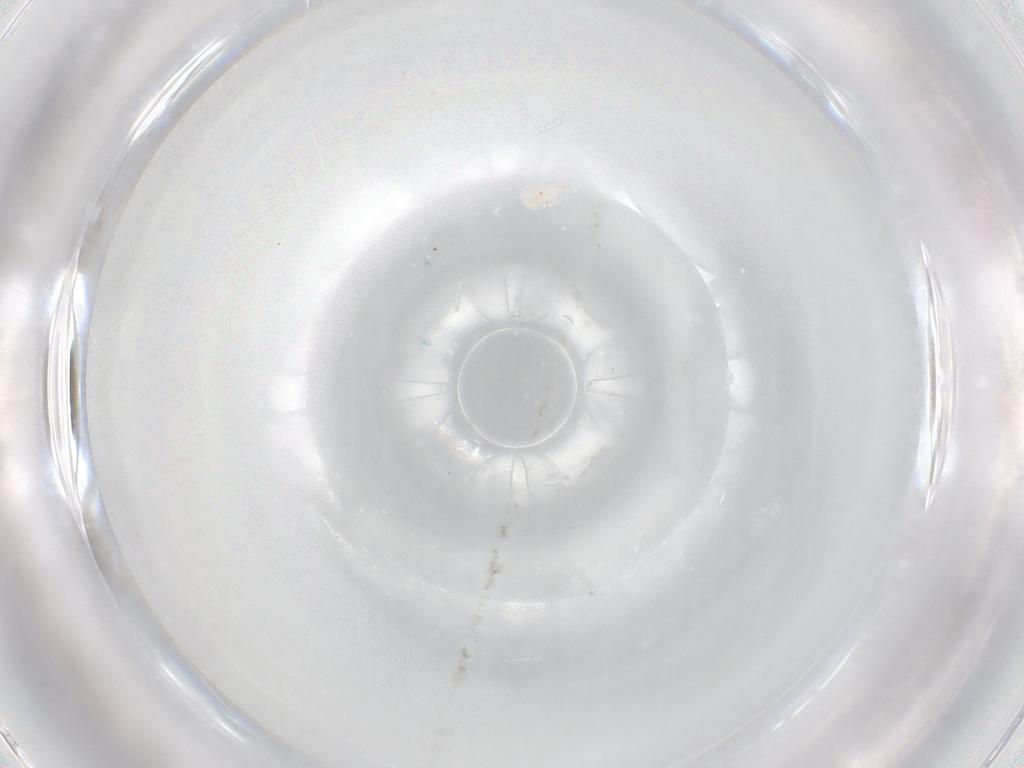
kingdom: Animalia
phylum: Arthropoda
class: Arachnida
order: Trombidiformes
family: Bdellidae
